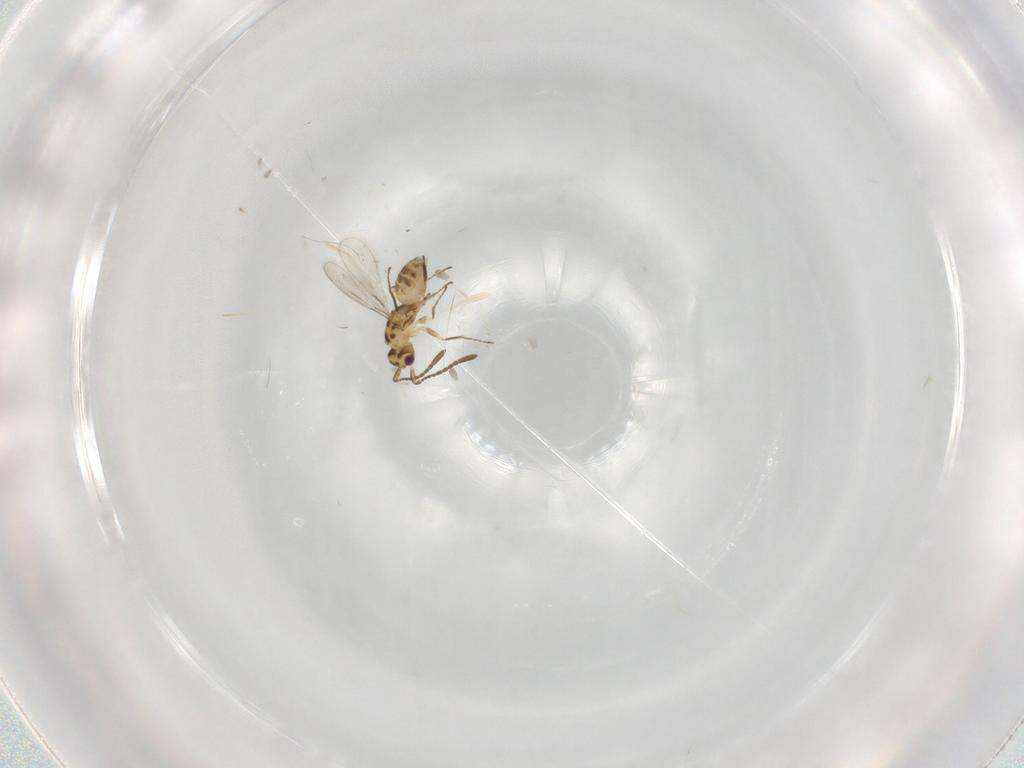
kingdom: Animalia
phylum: Arthropoda
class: Insecta
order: Hymenoptera
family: Mymaridae
